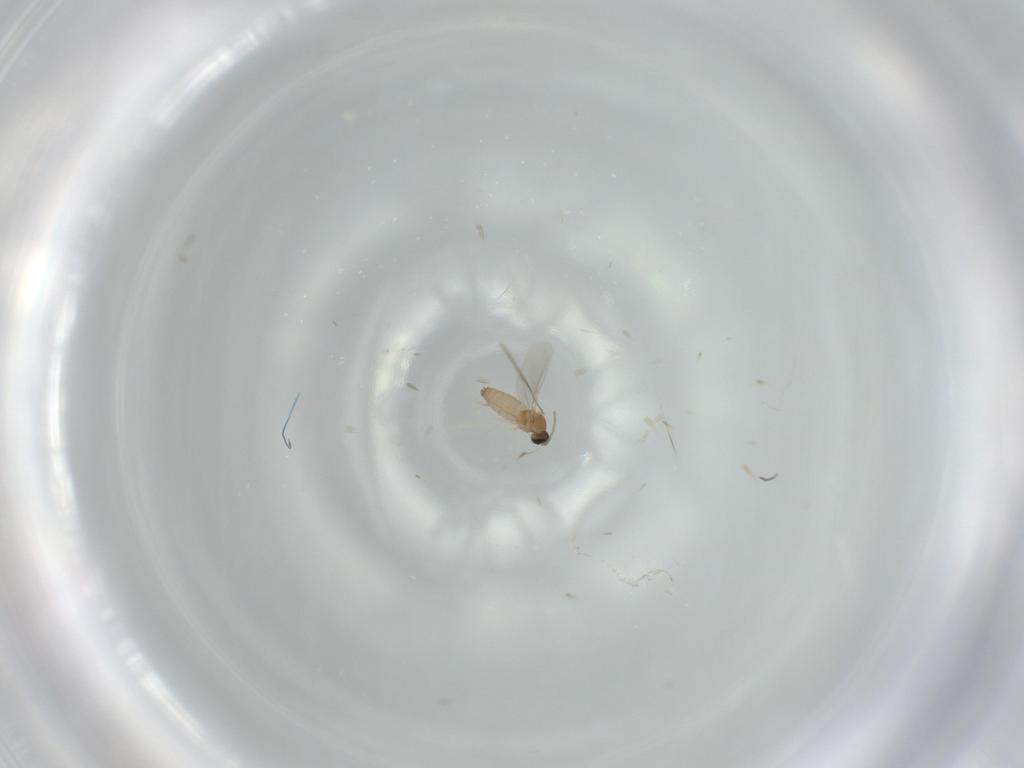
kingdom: Animalia
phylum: Arthropoda
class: Insecta
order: Diptera
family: Cecidomyiidae
